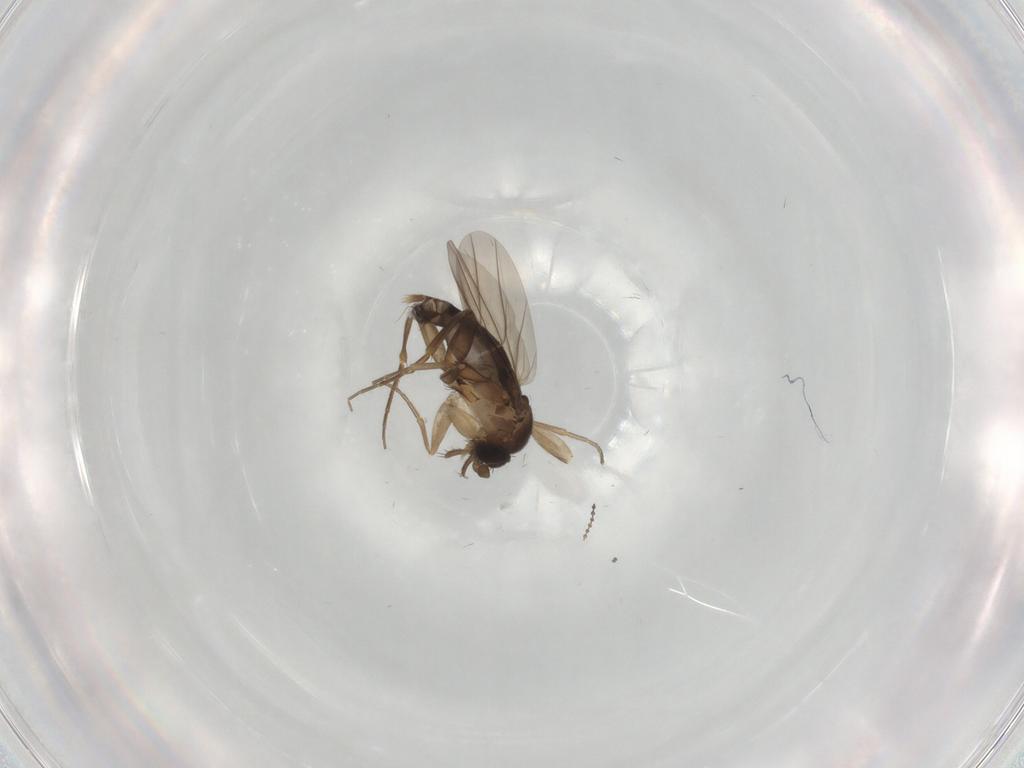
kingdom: Animalia
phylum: Arthropoda
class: Insecta
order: Diptera
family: Psychodidae
